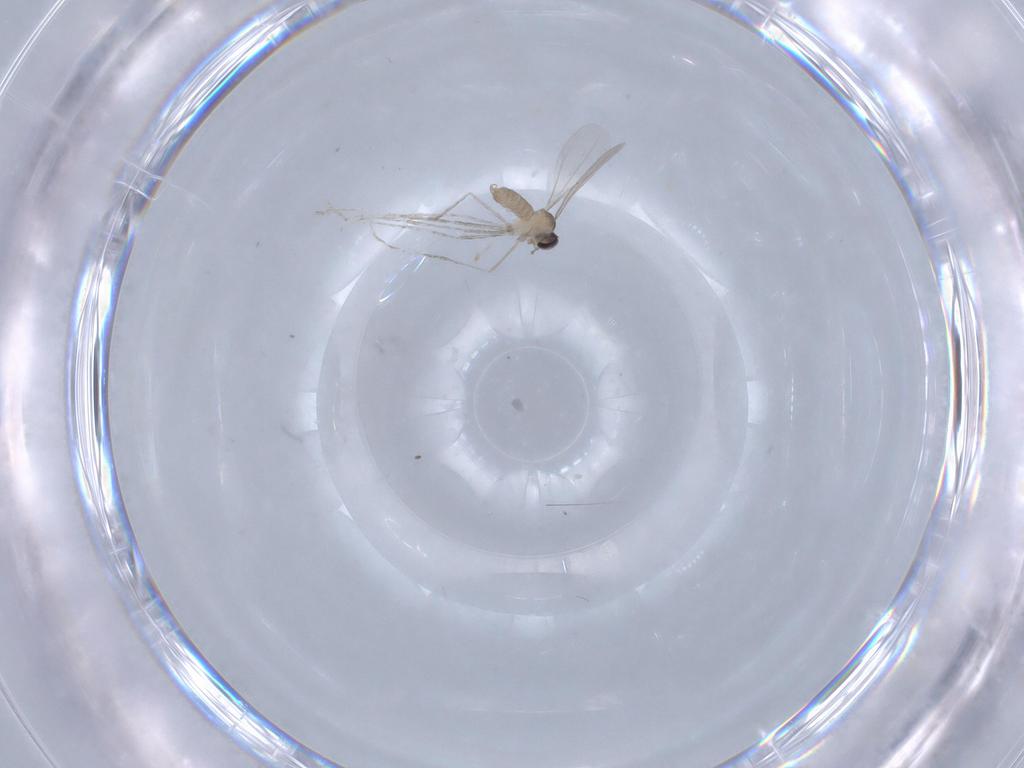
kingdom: Animalia
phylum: Arthropoda
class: Insecta
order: Diptera
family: Cecidomyiidae
